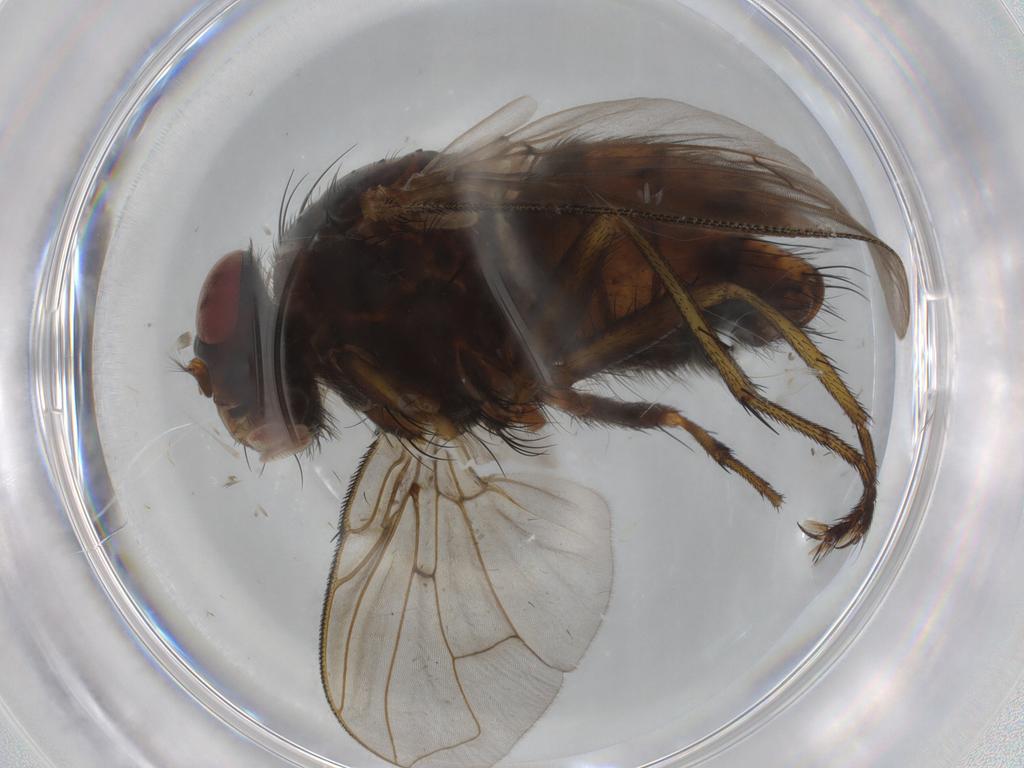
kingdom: Animalia
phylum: Arthropoda
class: Insecta
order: Diptera
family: Tachinidae
